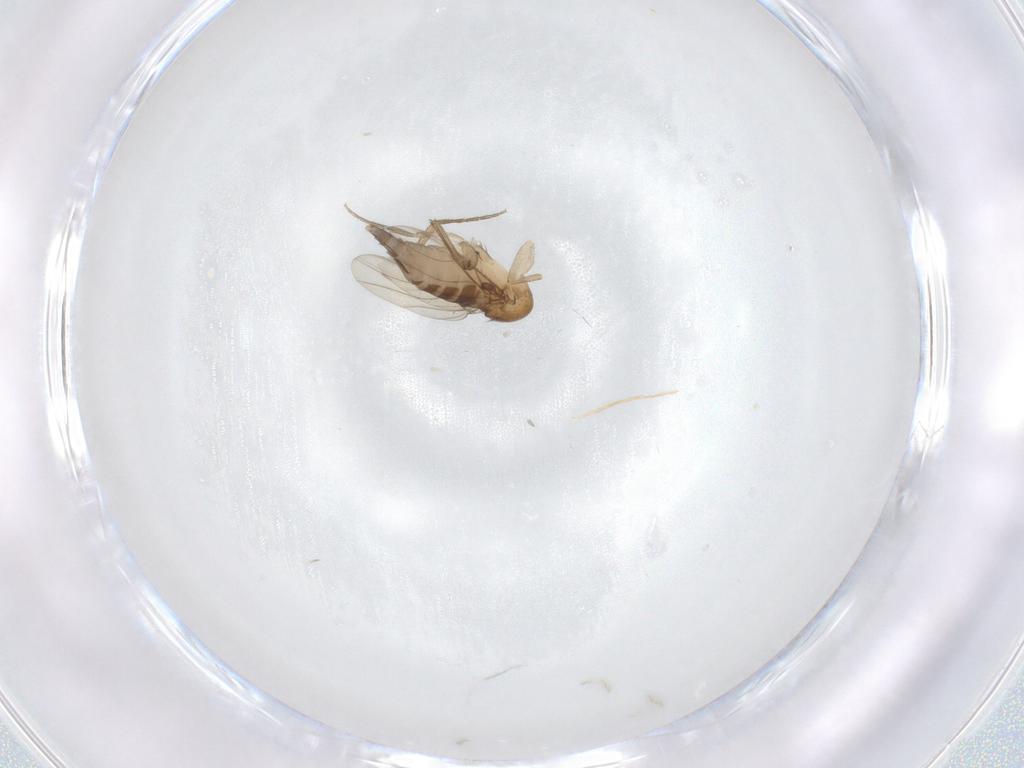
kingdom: Animalia
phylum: Arthropoda
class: Insecta
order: Diptera
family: Phoridae
